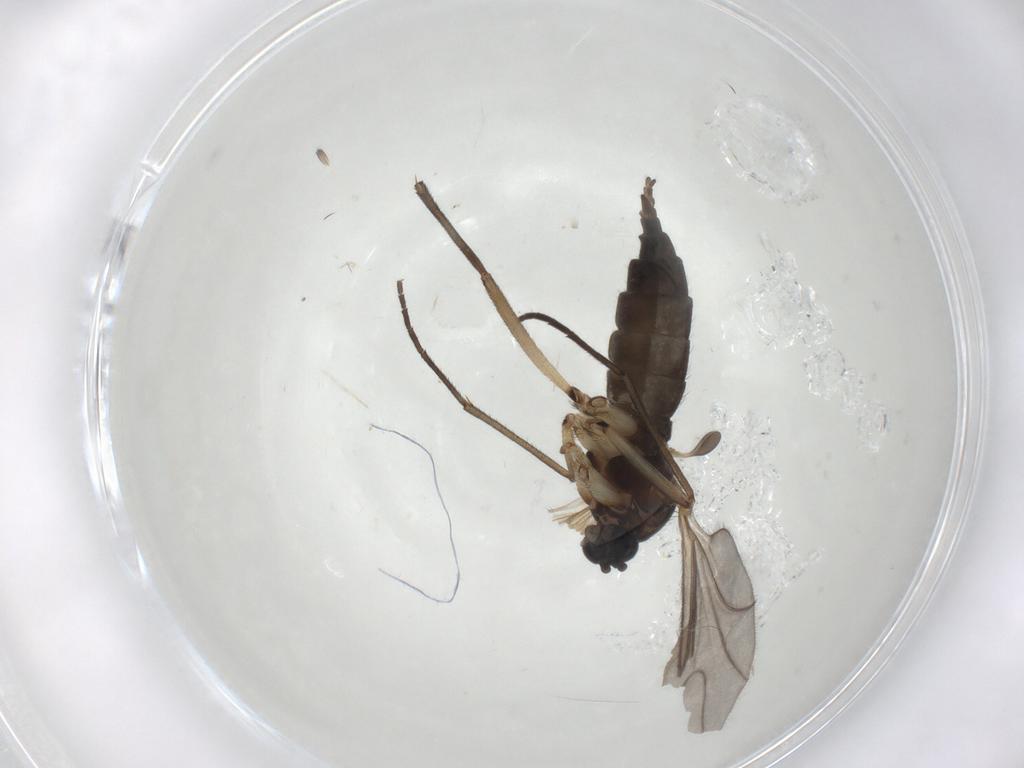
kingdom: Animalia
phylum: Arthropoda
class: Insecta
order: Diptera
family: Sciaridae
